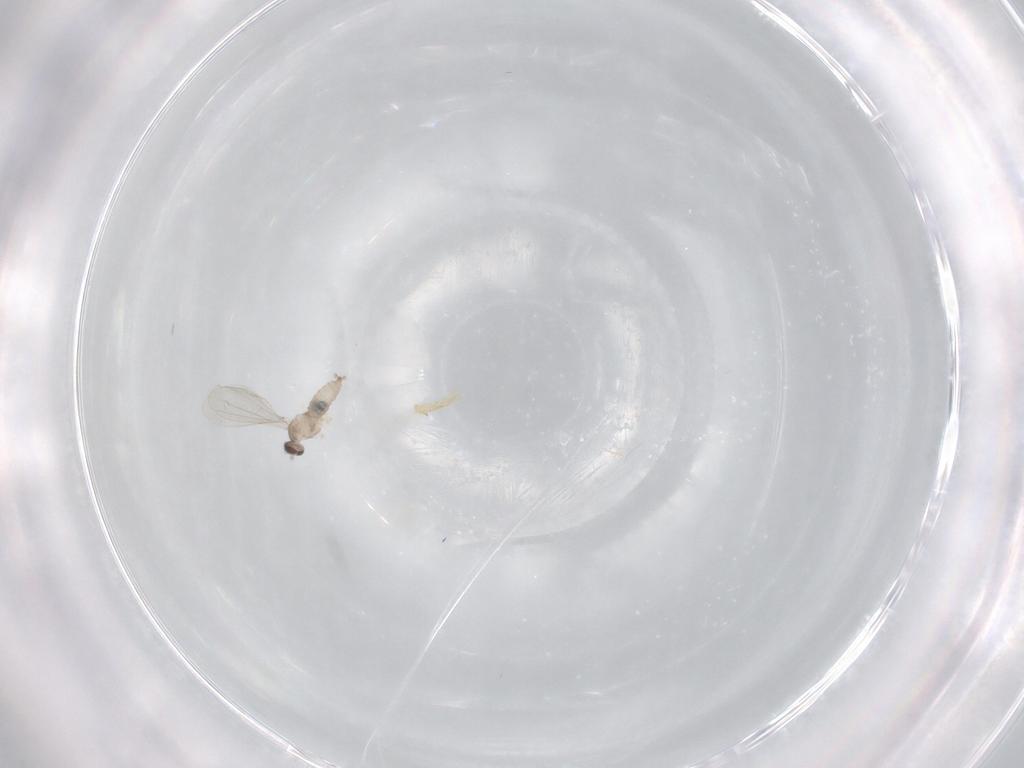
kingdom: Animalia
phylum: Arthropoda
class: Insecta
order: Diptera
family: Cecidomyiidae
